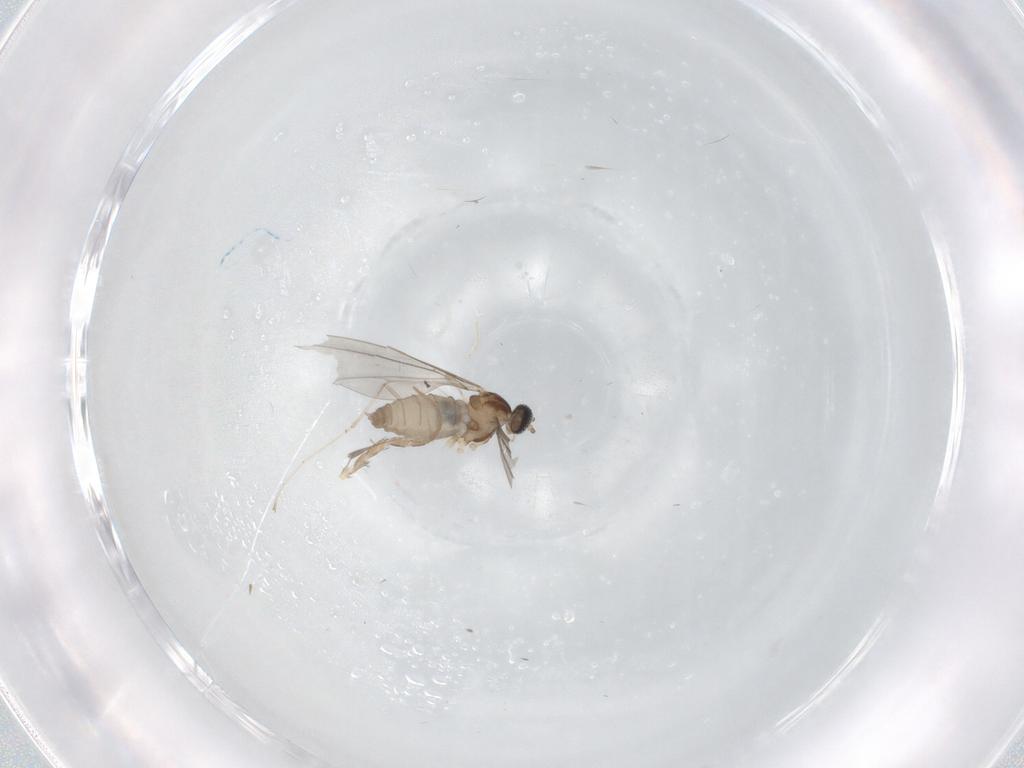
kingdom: Animalia
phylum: Arthropoda
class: Insecta
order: Diptera
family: Cecidomyiidae
